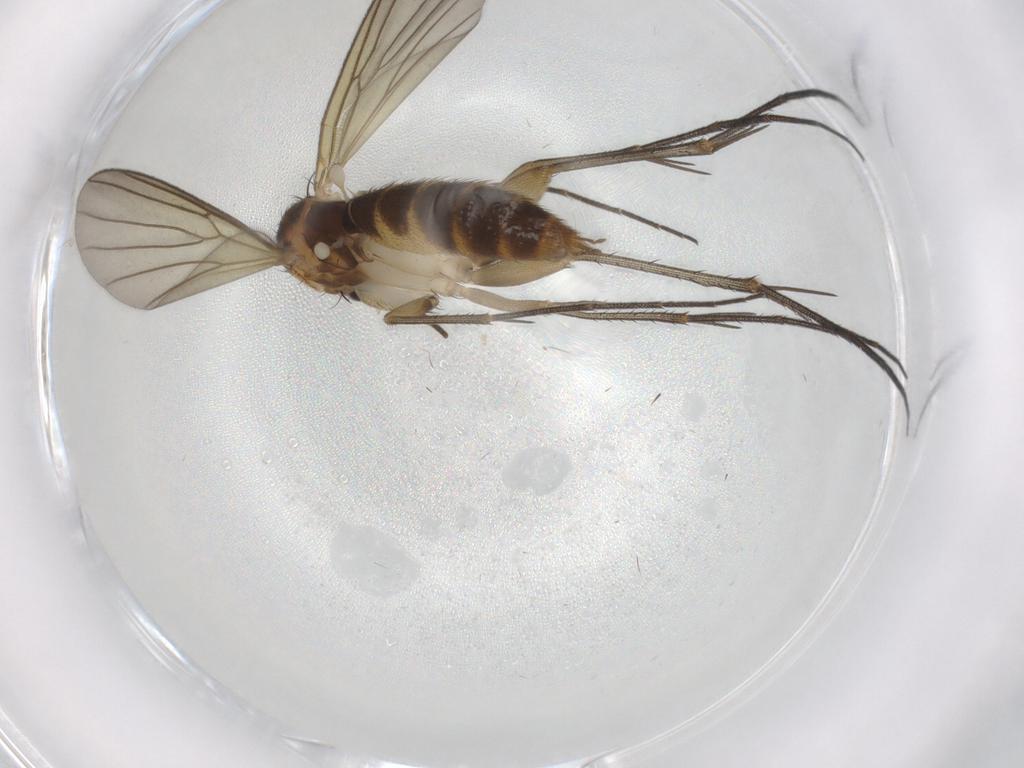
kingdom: Animalia
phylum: Arthropoda
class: Insecta
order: Diptera
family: Mycetophilidae
